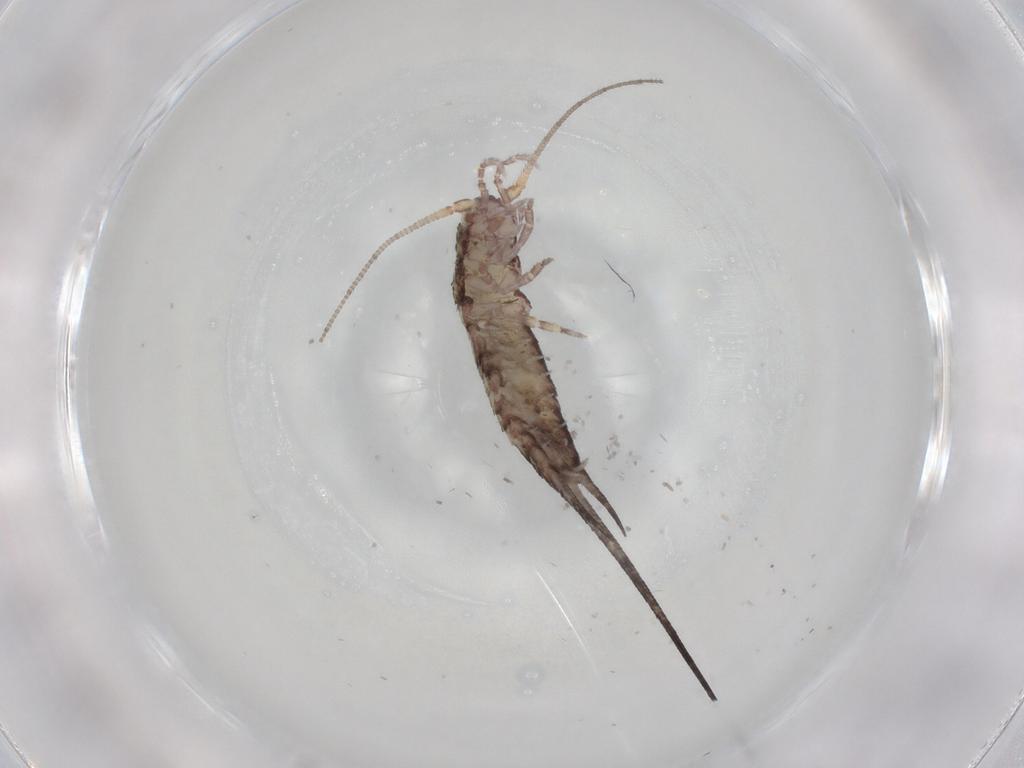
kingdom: Animalia
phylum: Arthropoda
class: Insecta
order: Archaeognatha
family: Machilidae
